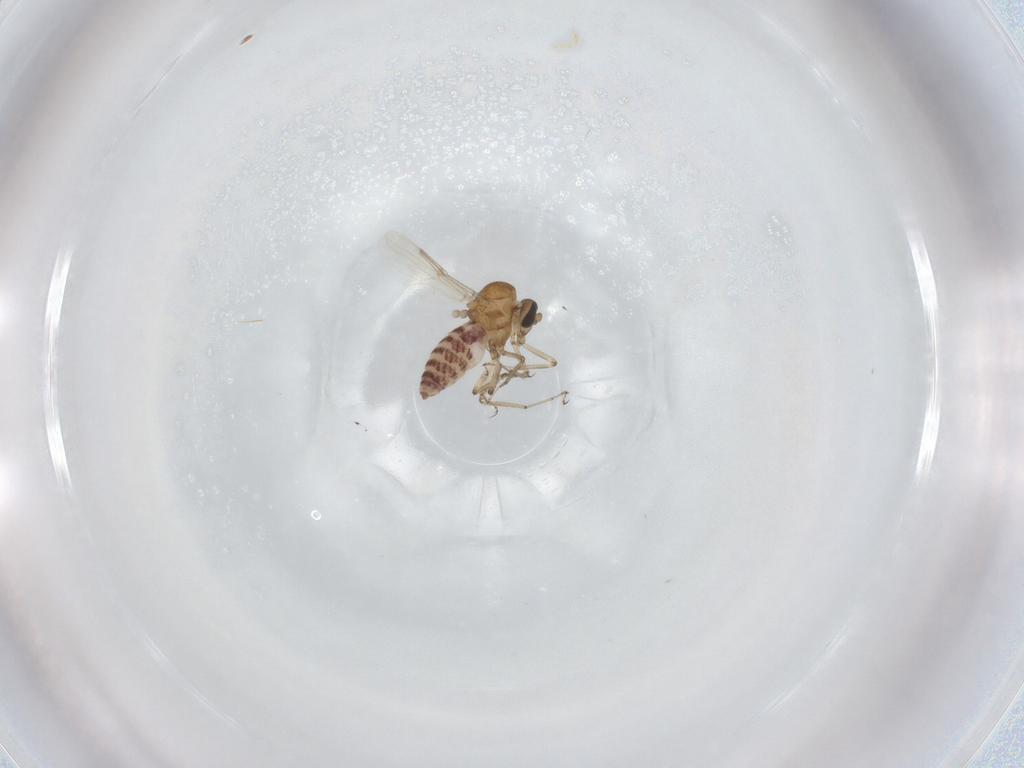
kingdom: Animalia
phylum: Arthropoda
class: Insecta
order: Diptera
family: Ceratopogonidae
